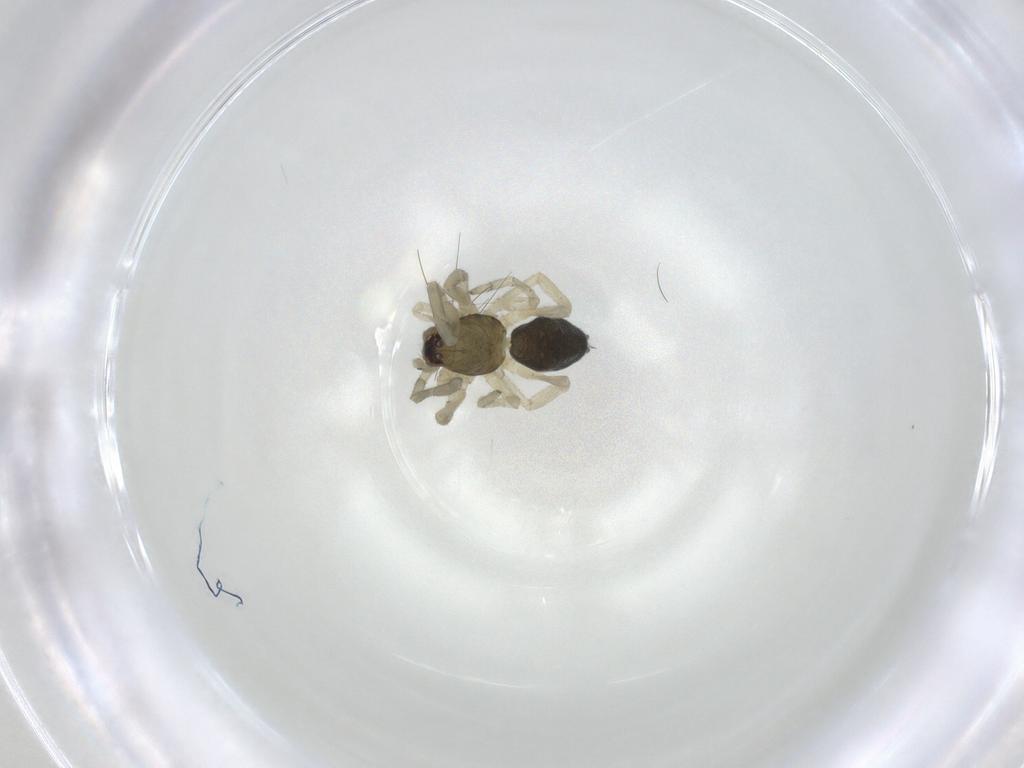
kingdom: Animalia
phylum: Arthropoda
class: Arachnida
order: Araneae
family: Trachelidae
